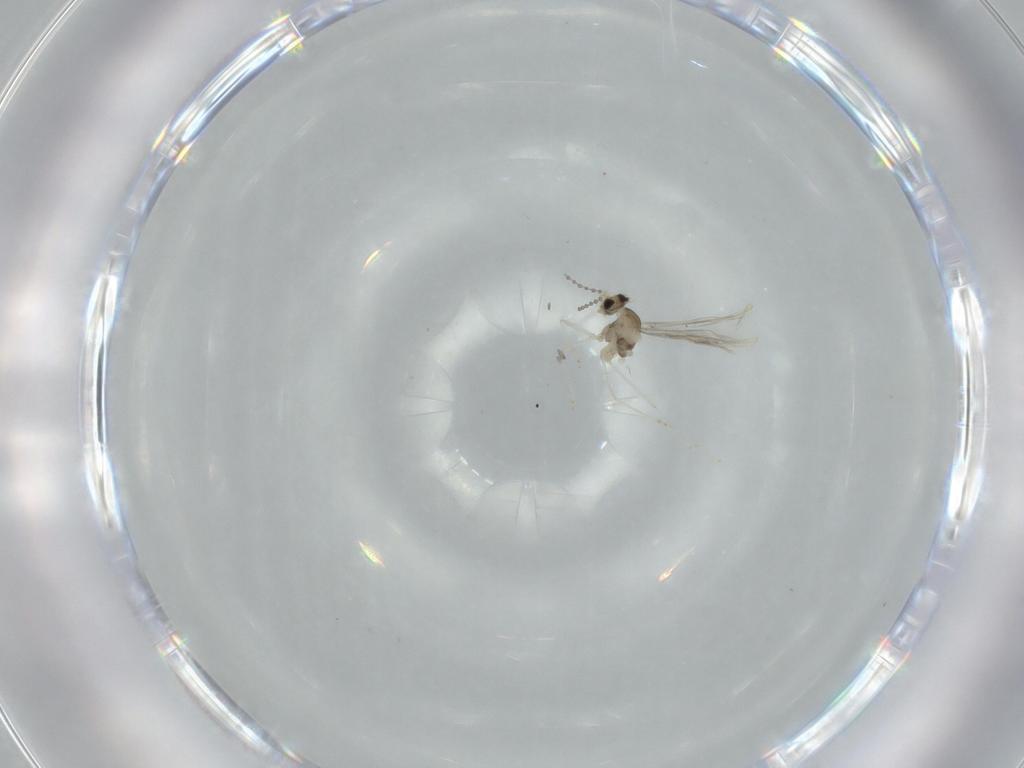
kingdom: Animalia
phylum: Arthropoda
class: Insecta
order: Diptera
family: Cecidomyiidae
